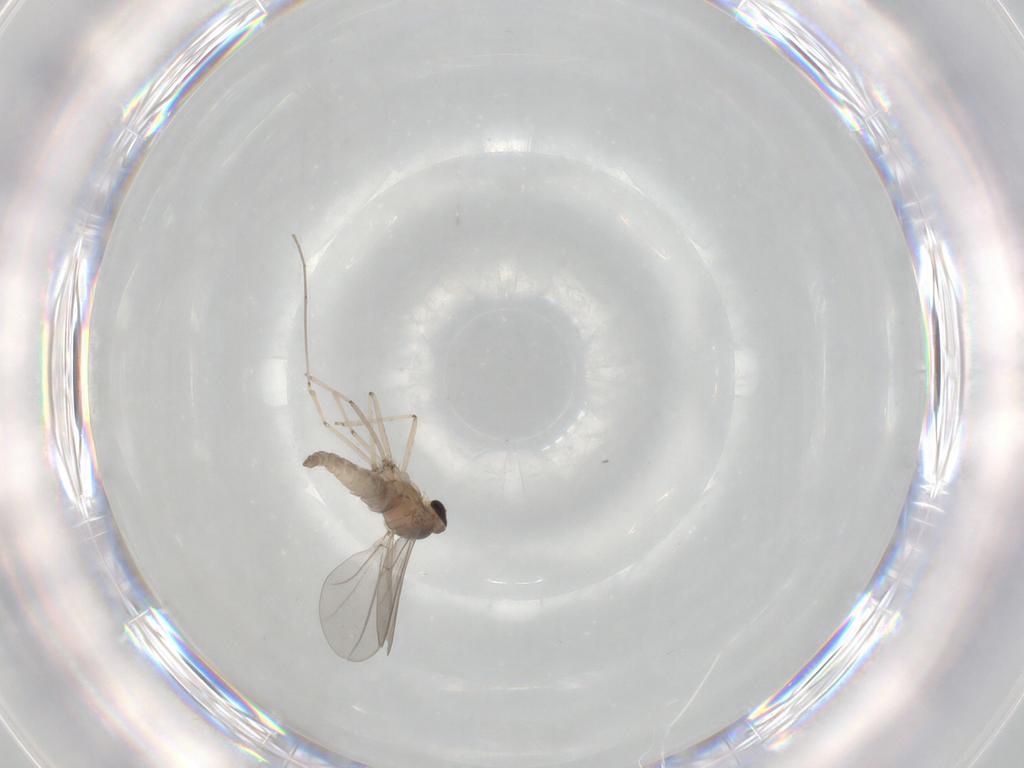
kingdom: Animalia
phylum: Arthropoda
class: Insecta
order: Diptera
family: Cecidomyiidae
